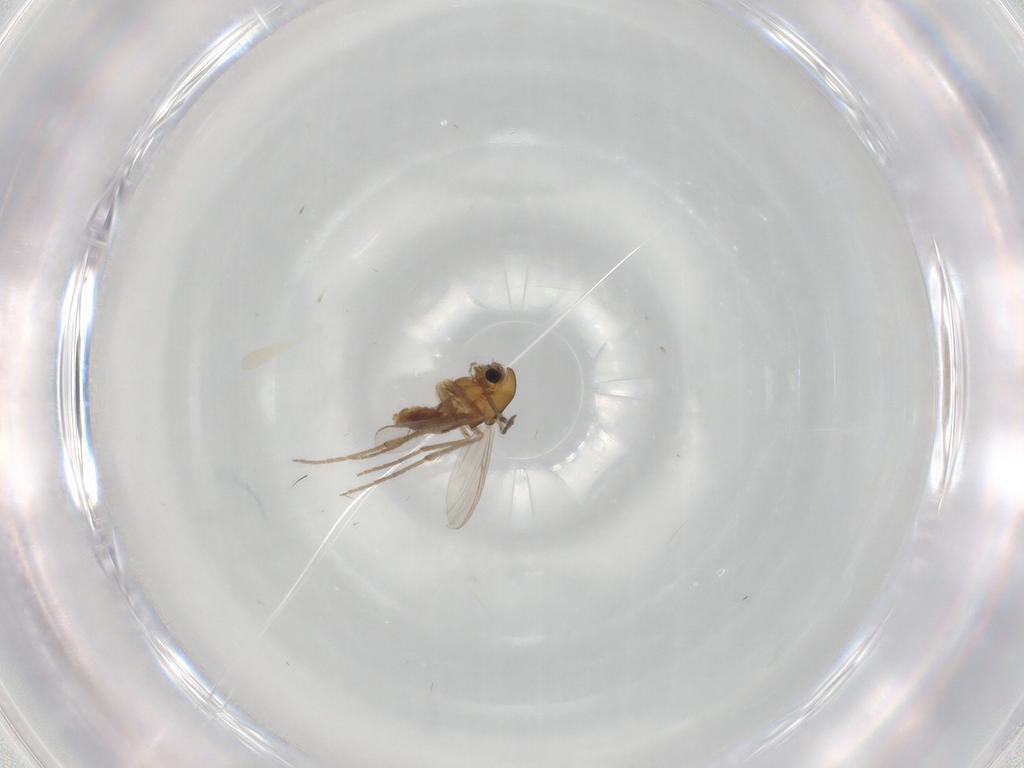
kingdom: Animalia
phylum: Arthropoda
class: Insecta
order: Diptera
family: Chironomidae
